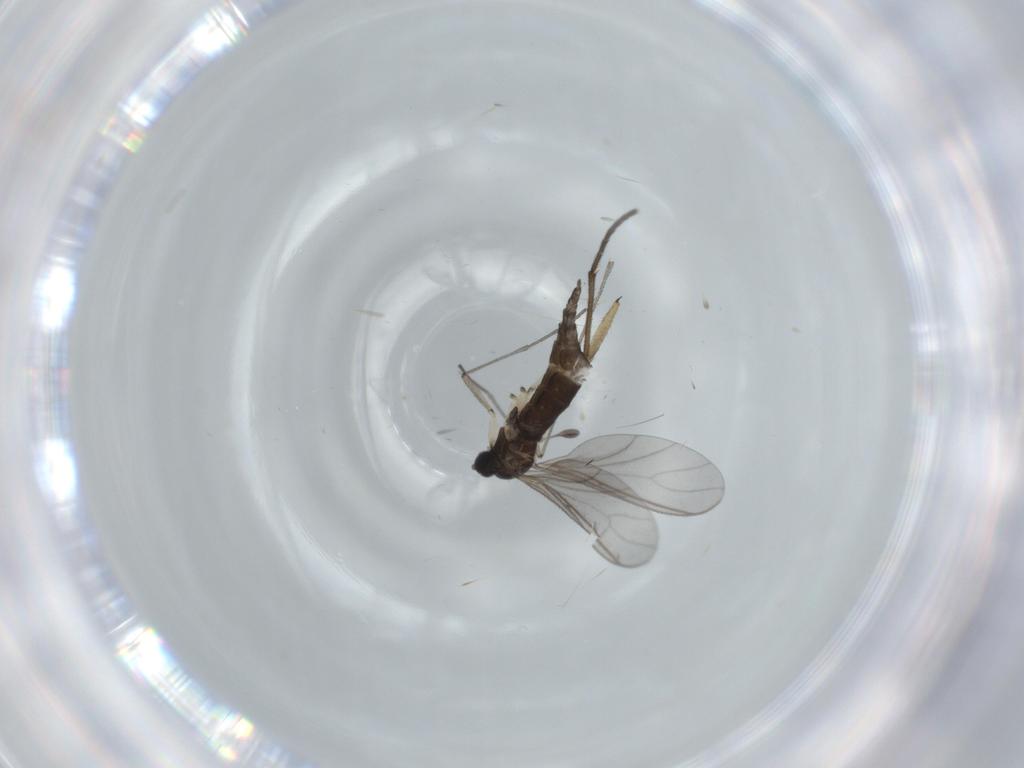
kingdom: Animalia
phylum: Arthropoda
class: Insecta
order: Diptera
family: Sciaridae
